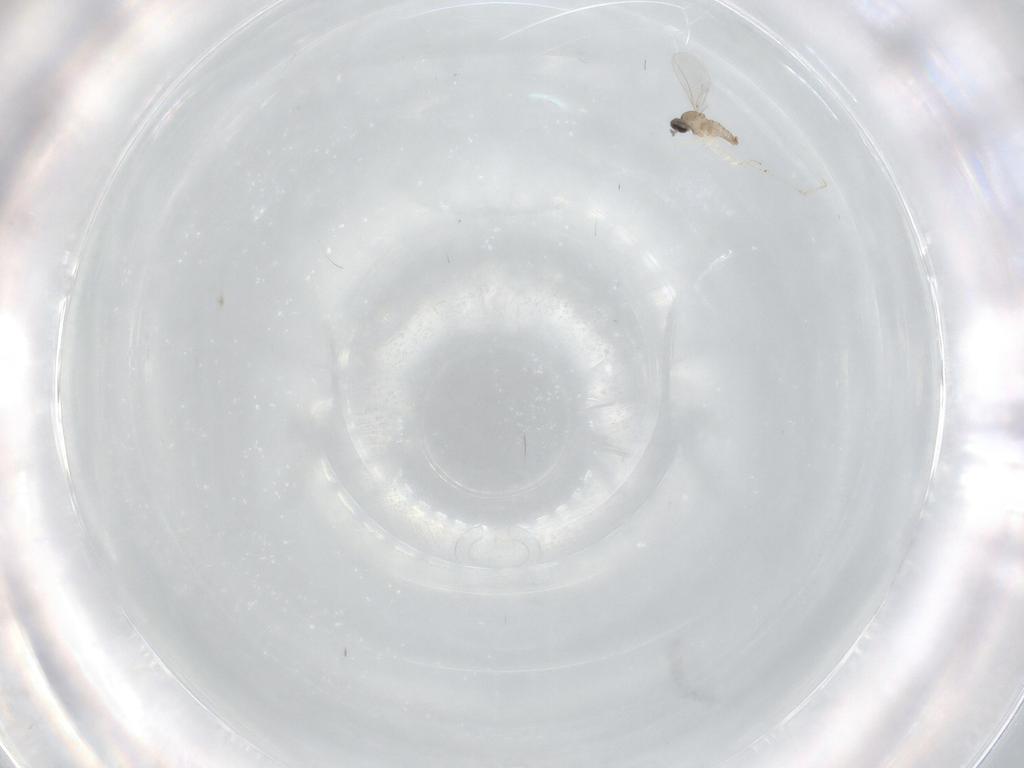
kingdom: Animalia
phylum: Arthropoda
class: Insecta
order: Diptera
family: Cecidomyiidae
